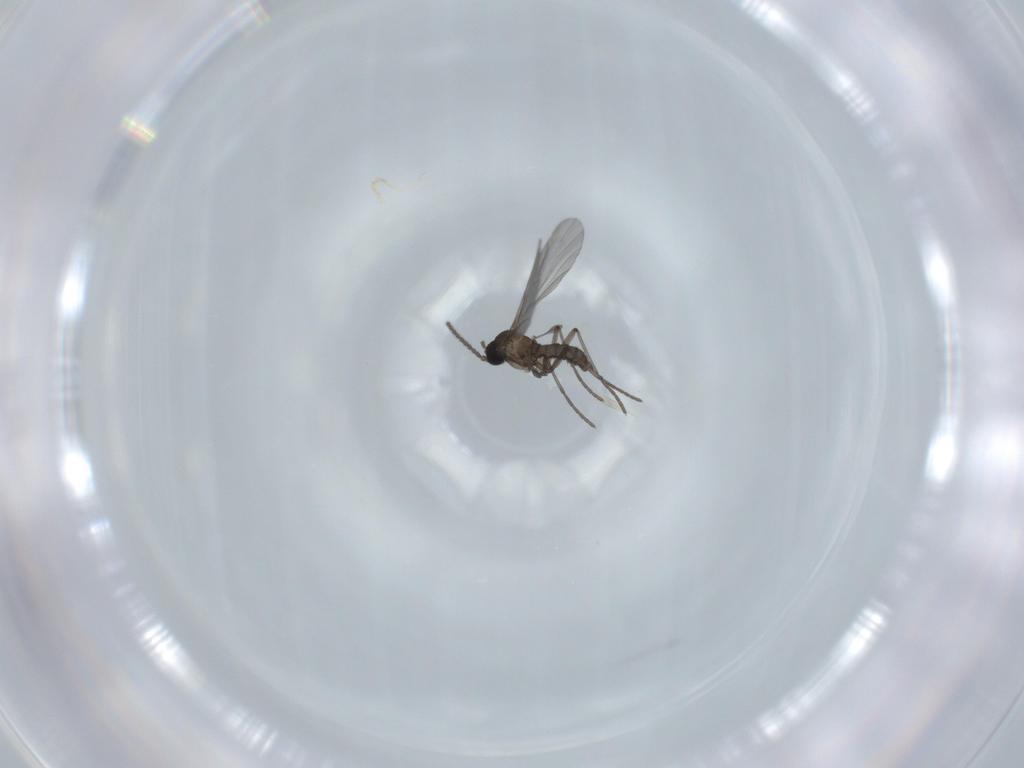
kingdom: Animalia
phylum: Arthropoda
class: Insecta
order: Diptera
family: Sciaridae
